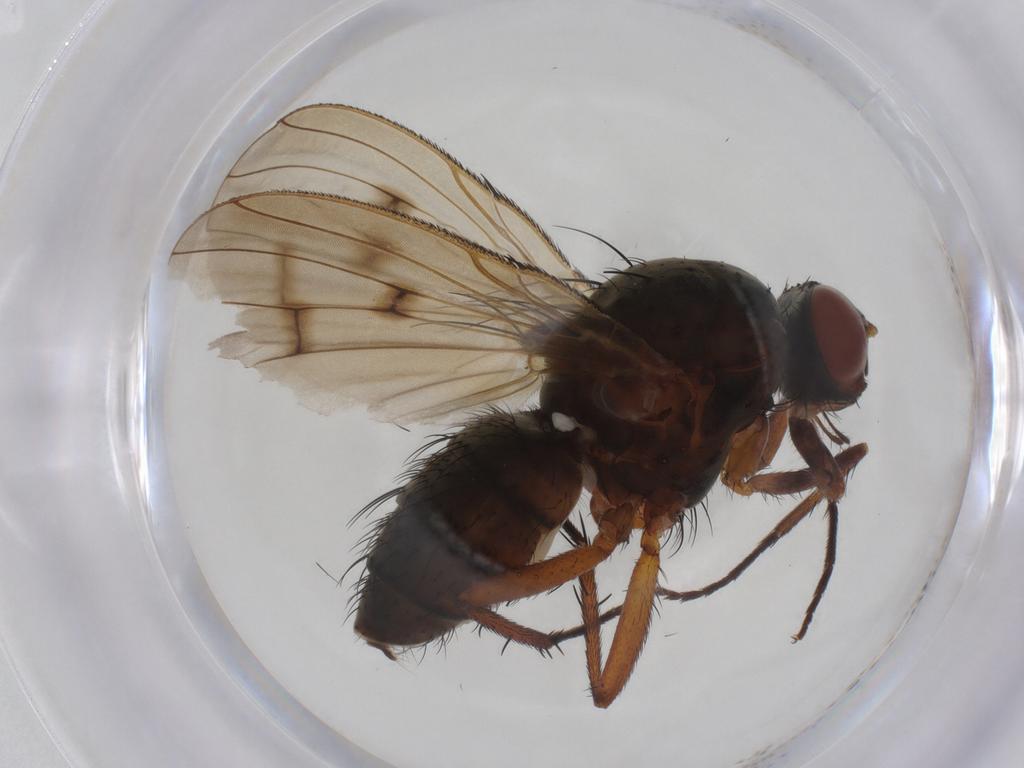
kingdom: Animalia
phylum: Arthropoda
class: Insecta
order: Diptera
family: Anthomyiidae
